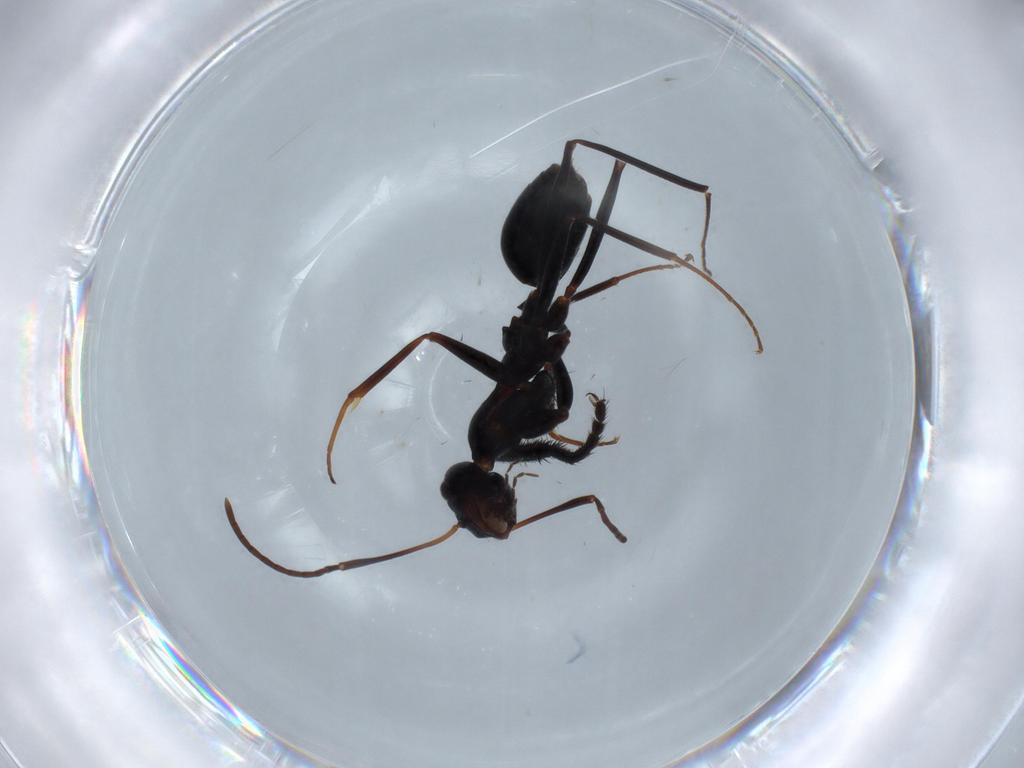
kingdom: Animalia
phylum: Arthropoda
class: Insecta
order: Hymenoptera
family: Formicidae
